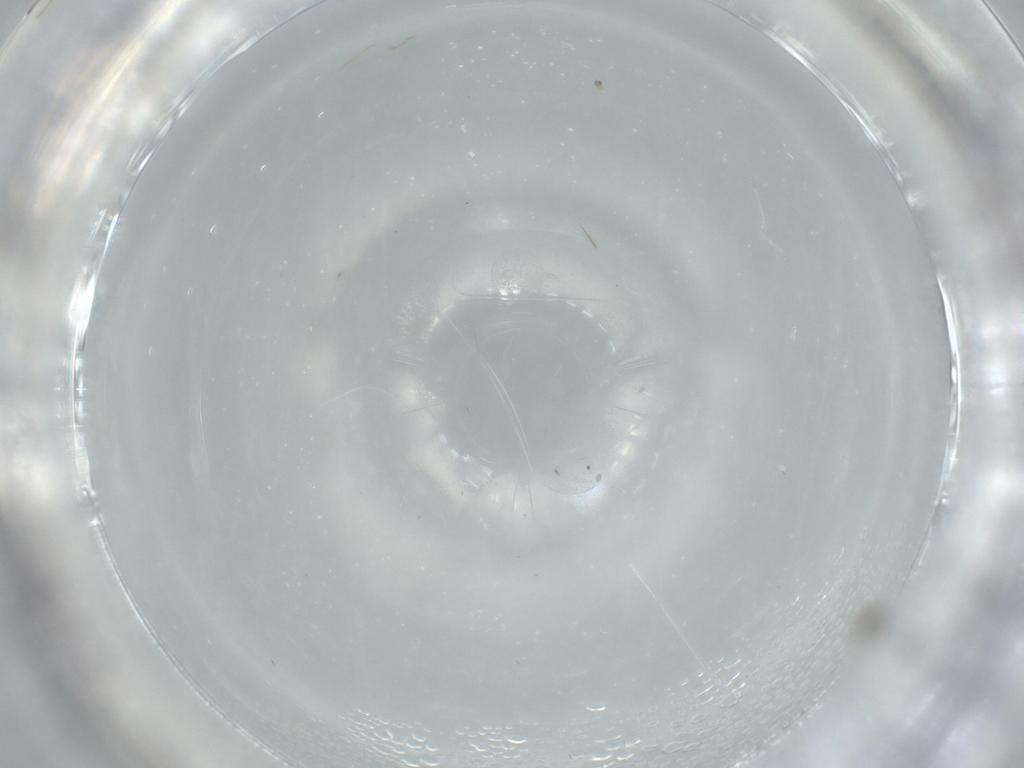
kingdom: Animalia
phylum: Arthropoda
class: Insecta
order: Diptera
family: Cecidomyiidae
